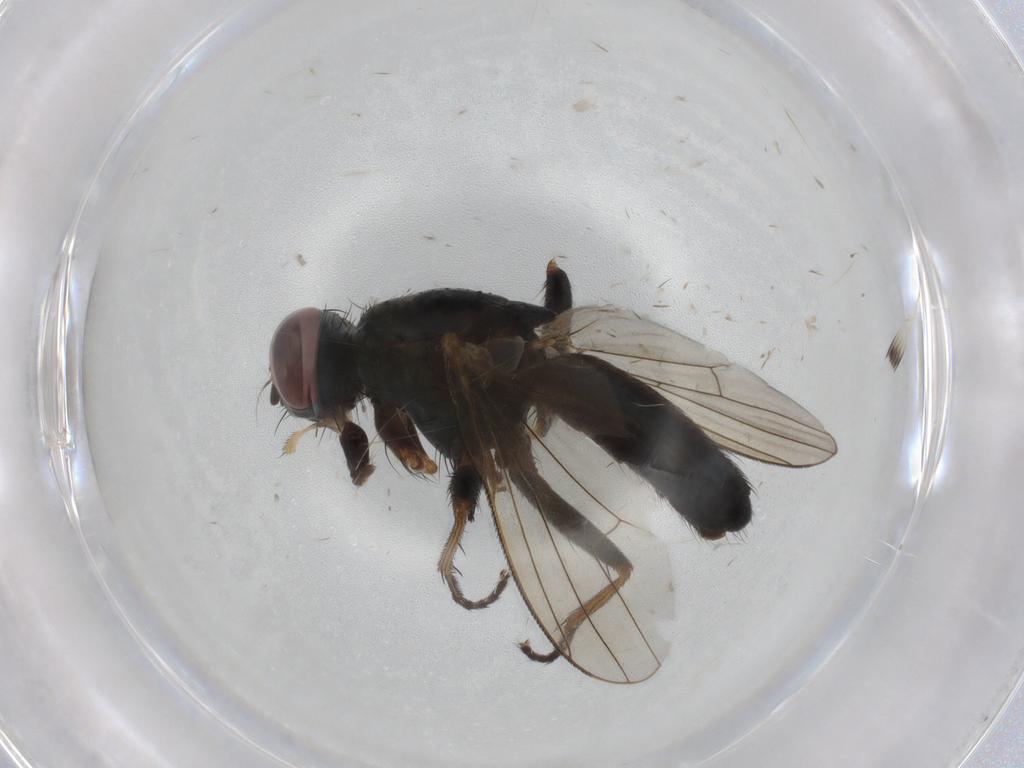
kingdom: Animalia
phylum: Arthropoda
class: Insecta
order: Diptera
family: Muscidae
